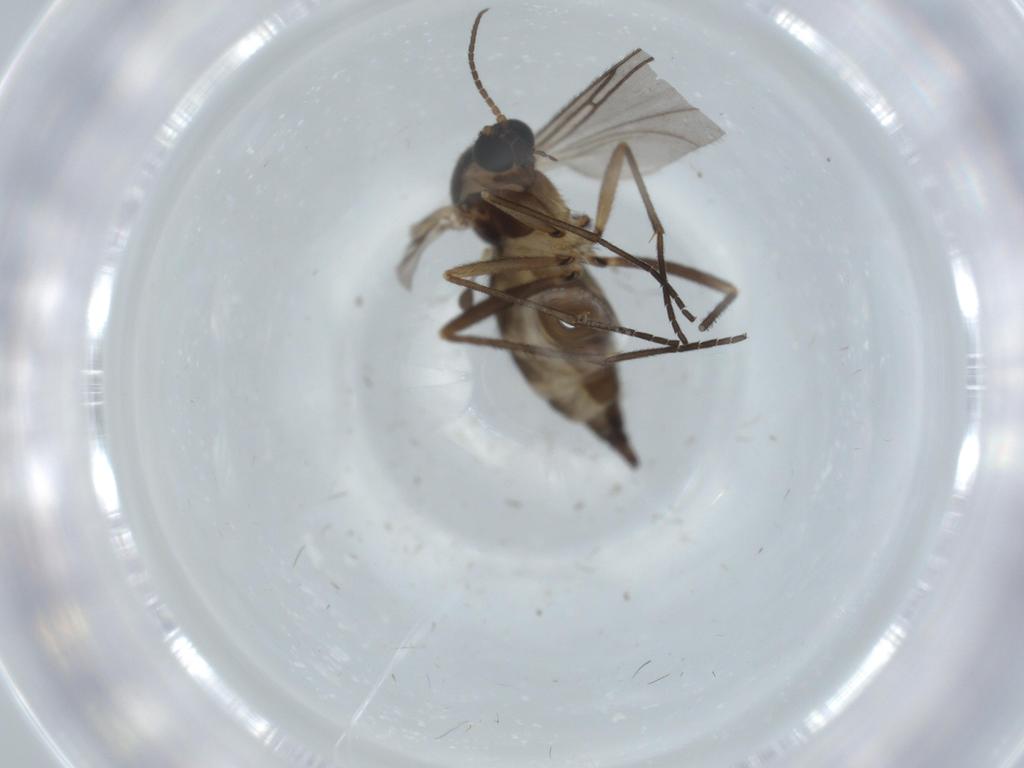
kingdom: Animalia
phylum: Arthropoda
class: Insecta
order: Diptera
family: Sciaridae
